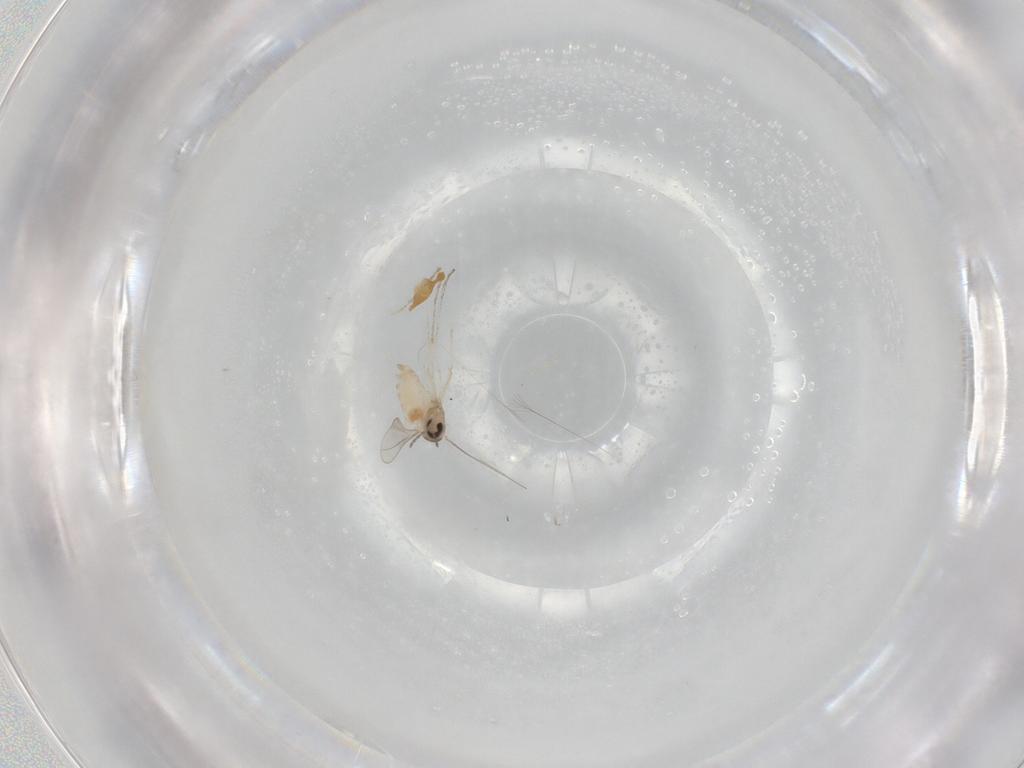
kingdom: Animalia
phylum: Arthropoda
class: Insecta
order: Diptera
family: Cecidomyiidae
